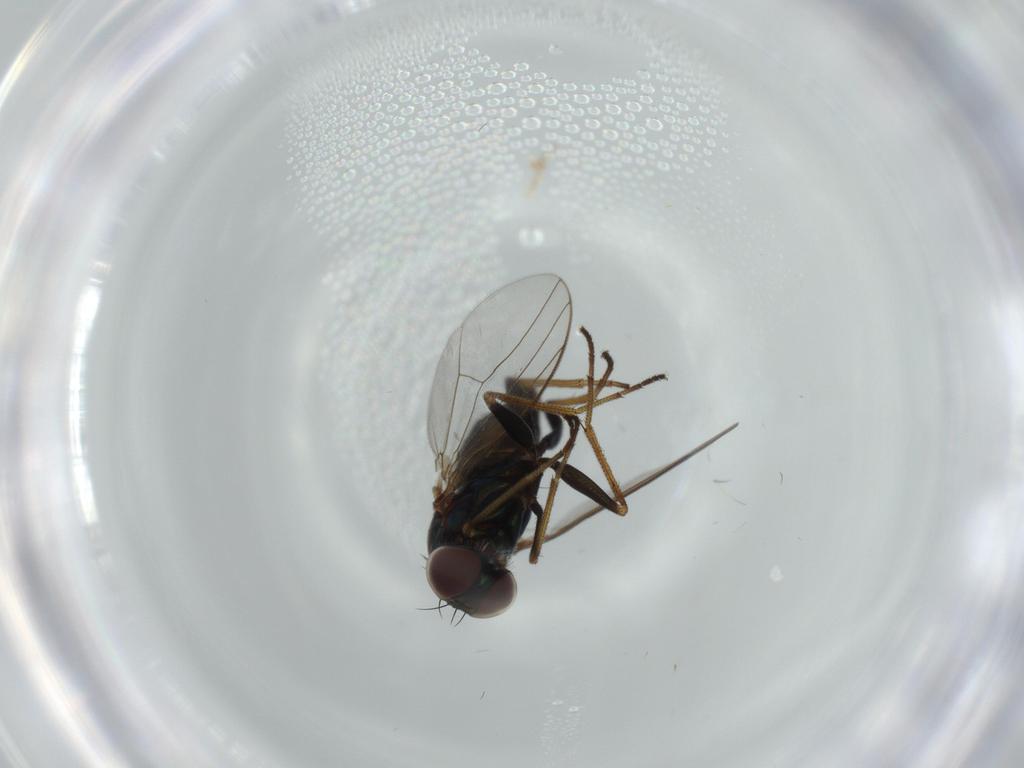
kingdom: Animalia
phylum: Arthropoda
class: Insecta
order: Diptera
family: Dolichopodidae
